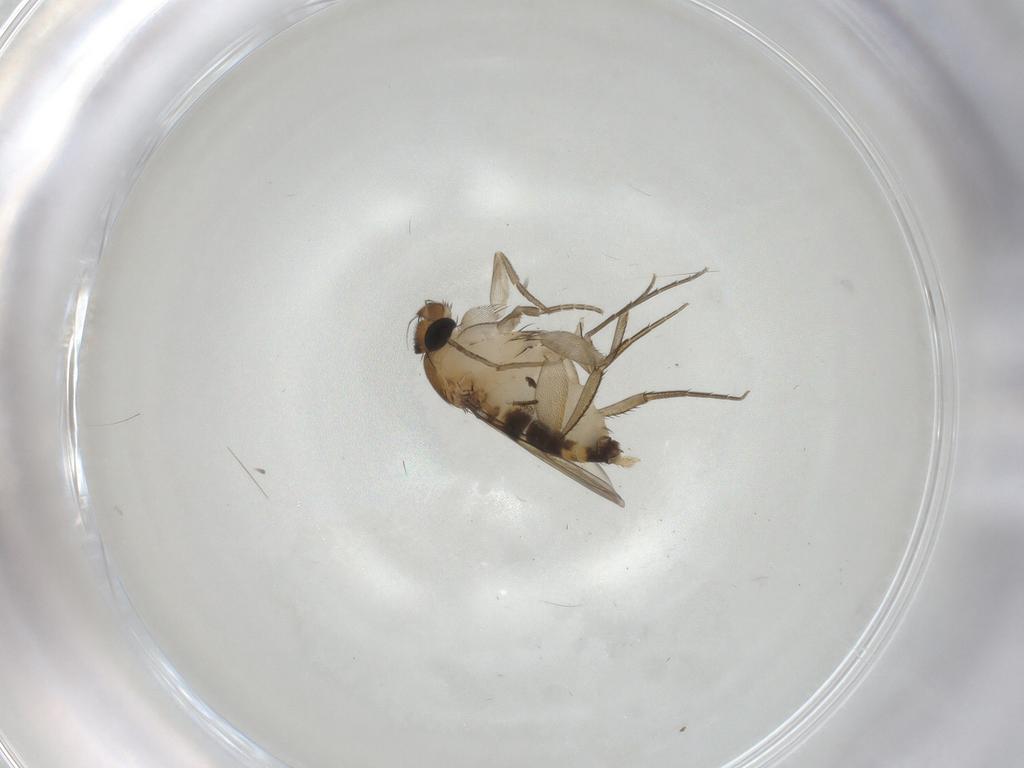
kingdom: Animalia
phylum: Arthropoda
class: Insecta
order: Diptera
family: Phoridae
